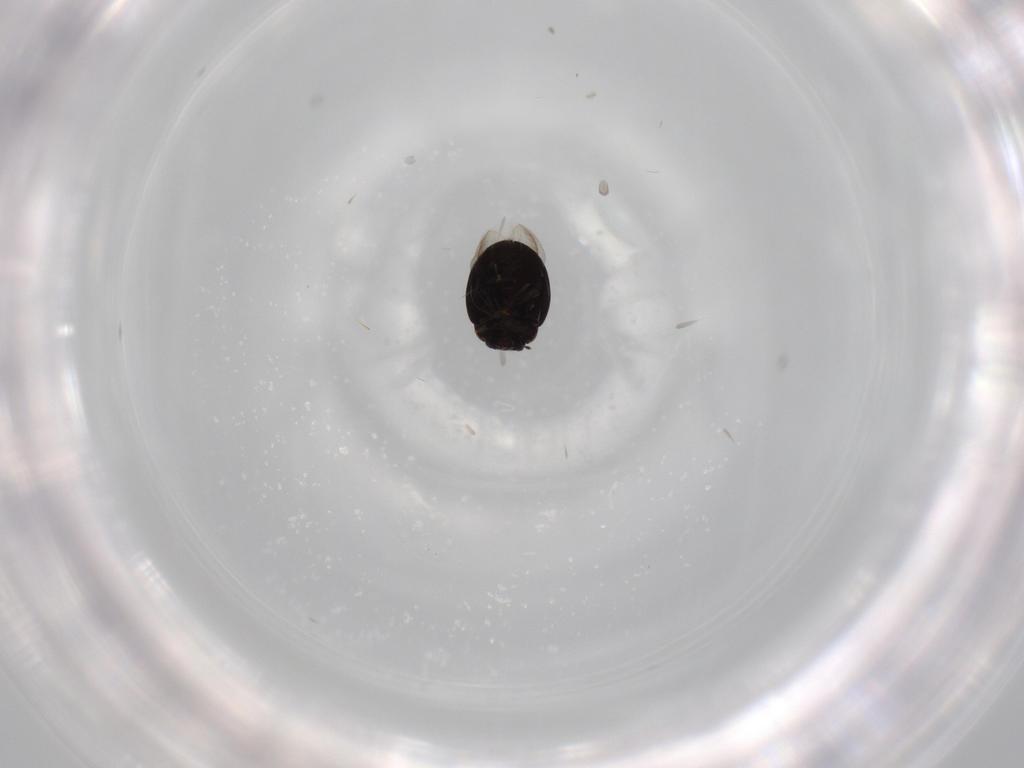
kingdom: Animalia
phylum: Arthropoda
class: Insecta
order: Coleoptera
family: Coccinellidae
